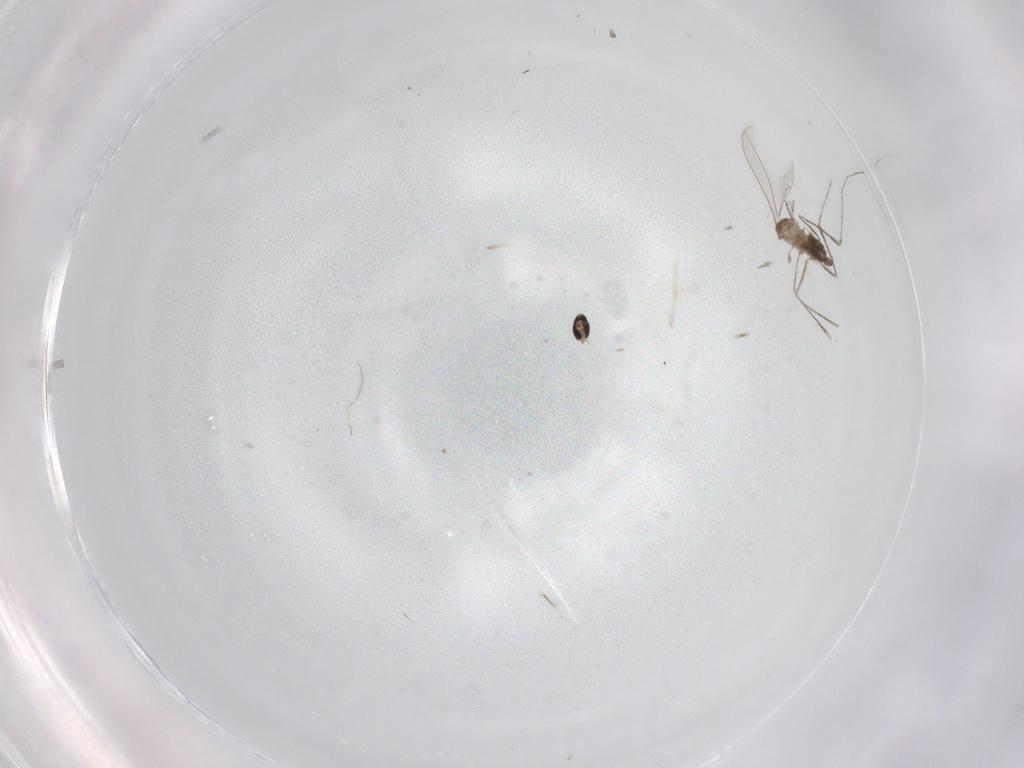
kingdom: Animalia
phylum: Arthropoda
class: Insecta
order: Diptera
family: Cecidomyiidae
